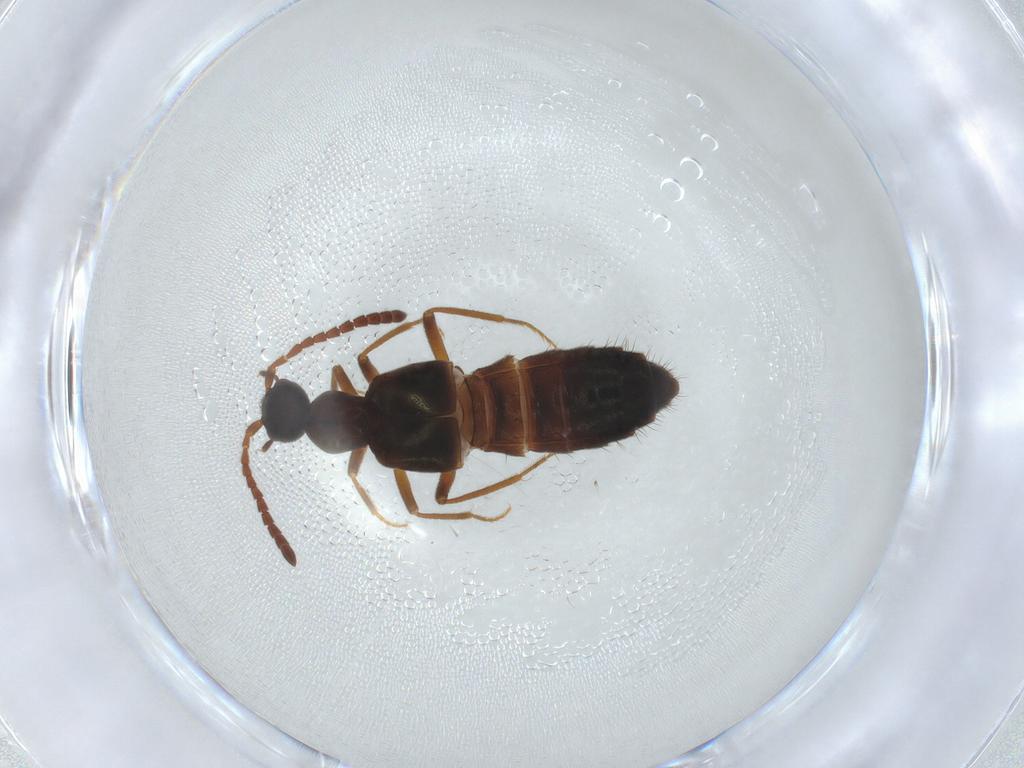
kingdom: Animalia
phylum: Arthropoda
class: Insecta
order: Coleoptera
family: Staphylinidae
